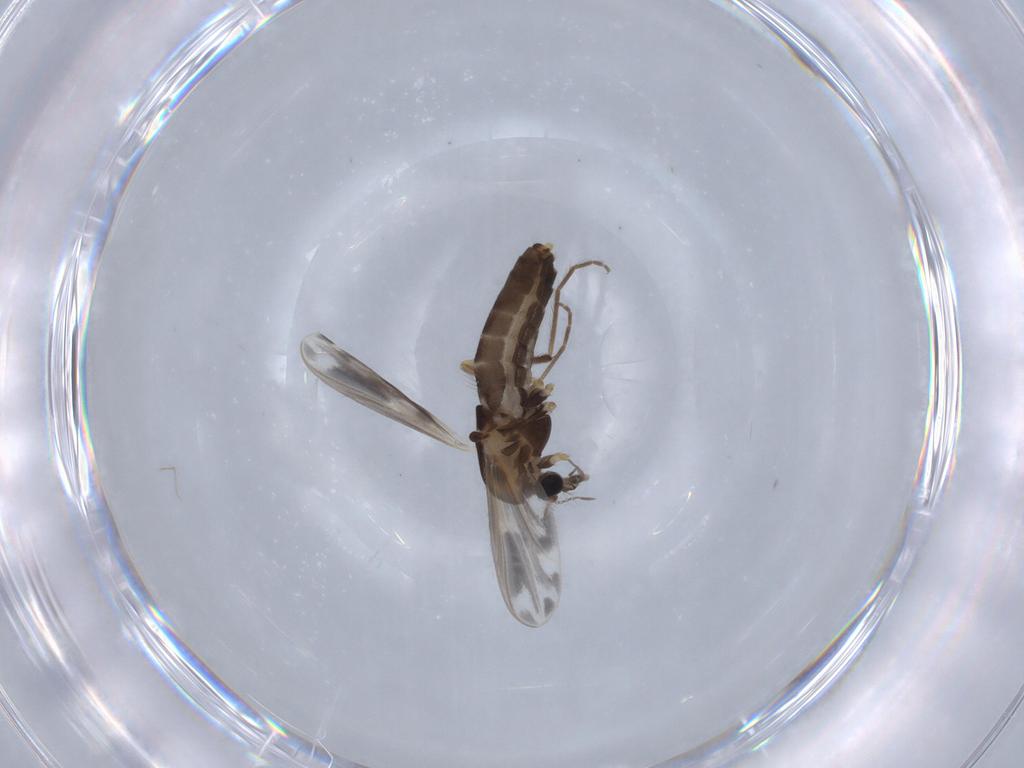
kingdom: Animalia
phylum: Arthropoda
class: Insecta
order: Diptera
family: Chironomidae
